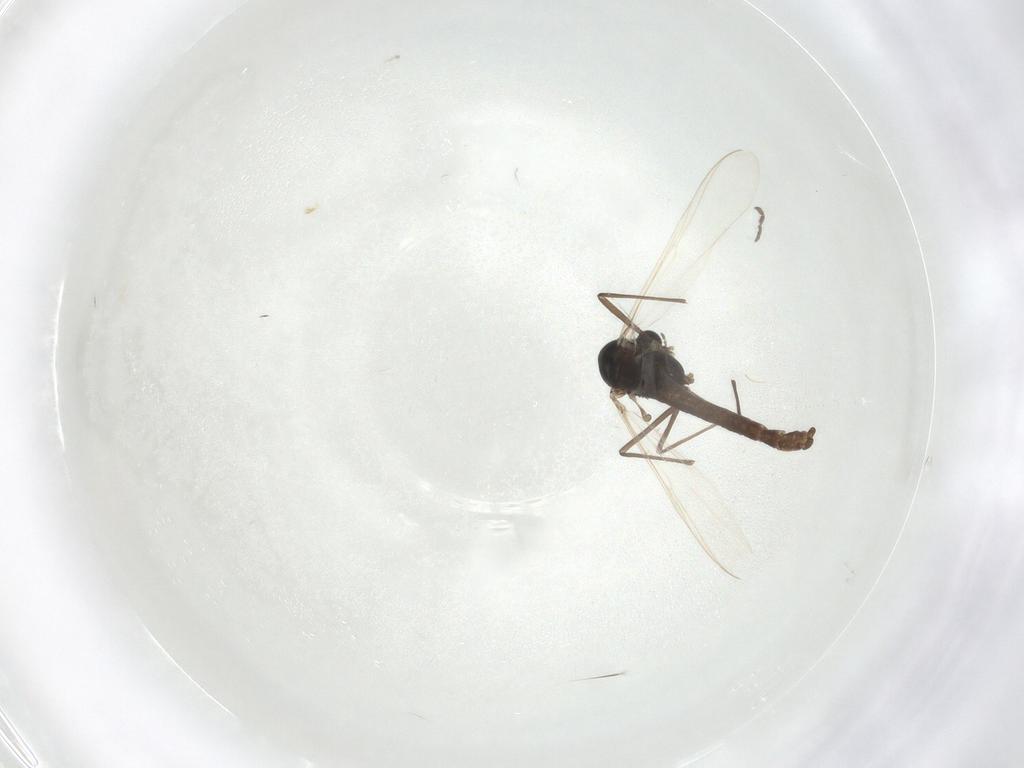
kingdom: Animalia
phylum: Arthropoda
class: Insecta
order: Diptera
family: Chironomidae
